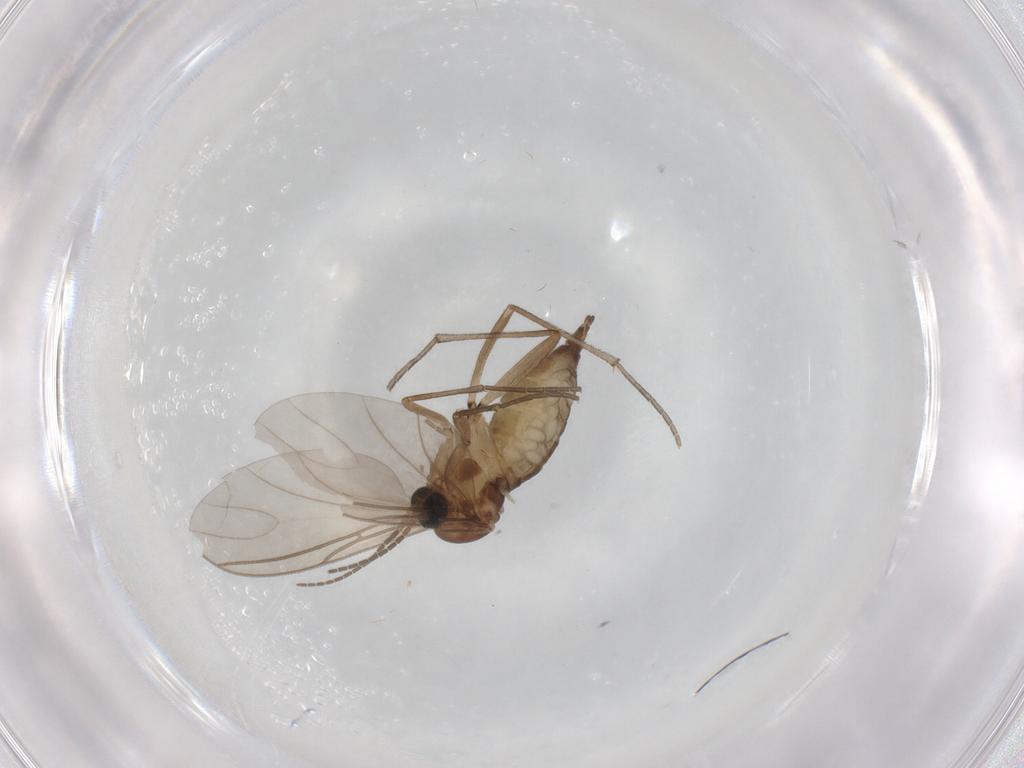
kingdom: Animalia
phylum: Arthropoda
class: Insecta
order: Diptera
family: Sciaridae
